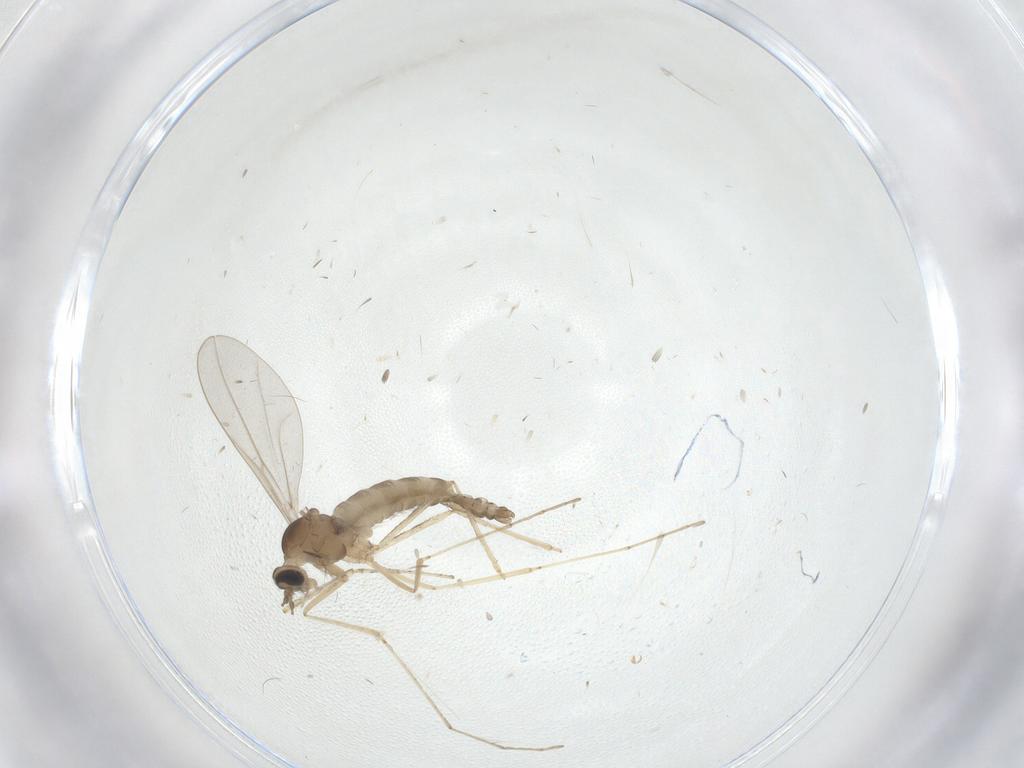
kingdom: Animalia
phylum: Arthropoda
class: Insecta
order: Diptera
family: Cecidomyiidae
